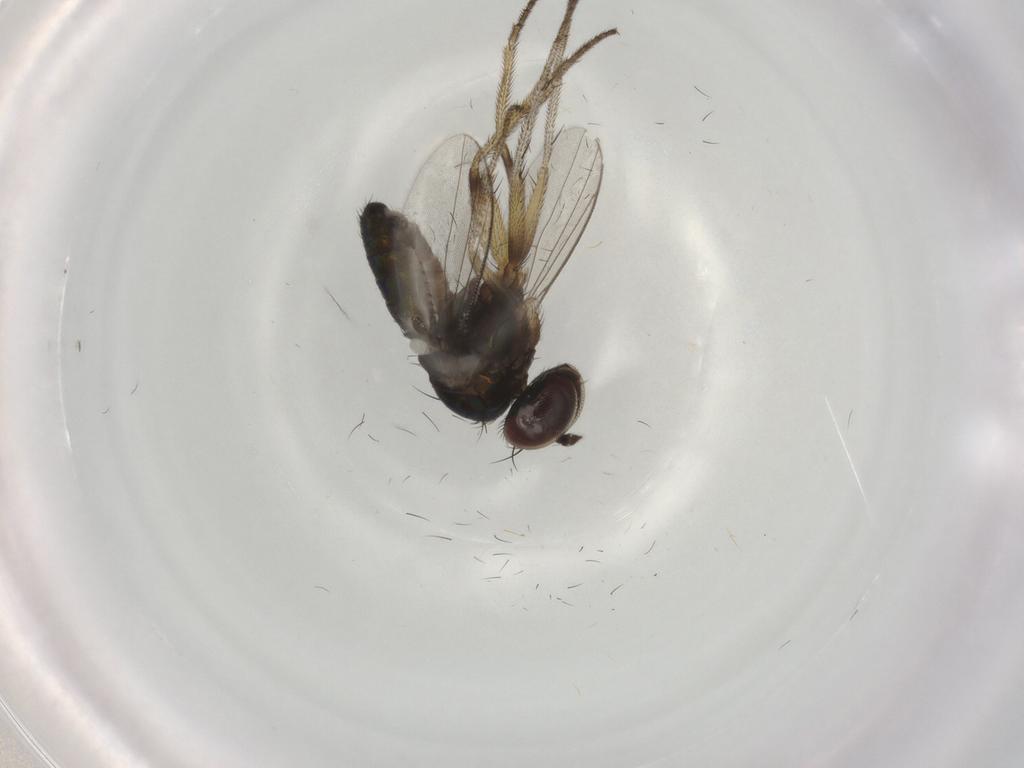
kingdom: Animalia
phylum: Arthropoda
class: Insecta
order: Diptera
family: Dolichopodidae
